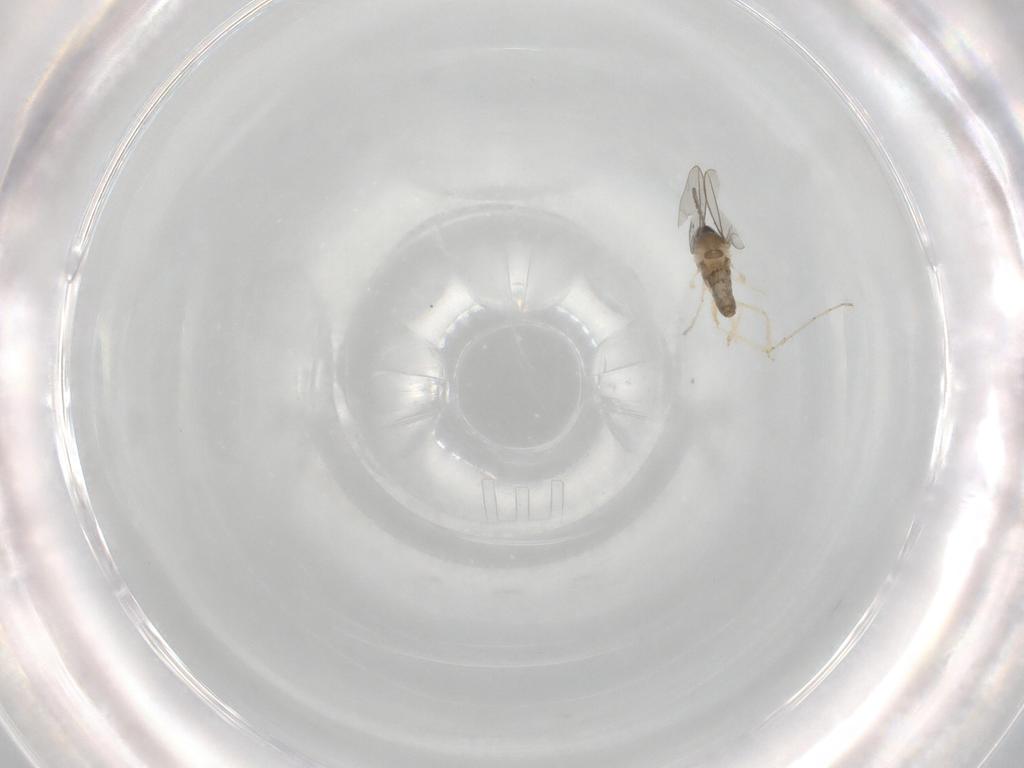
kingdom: Animalia
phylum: Arthropoda
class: Insecta
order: Diptera
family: Cecidomyiidae
